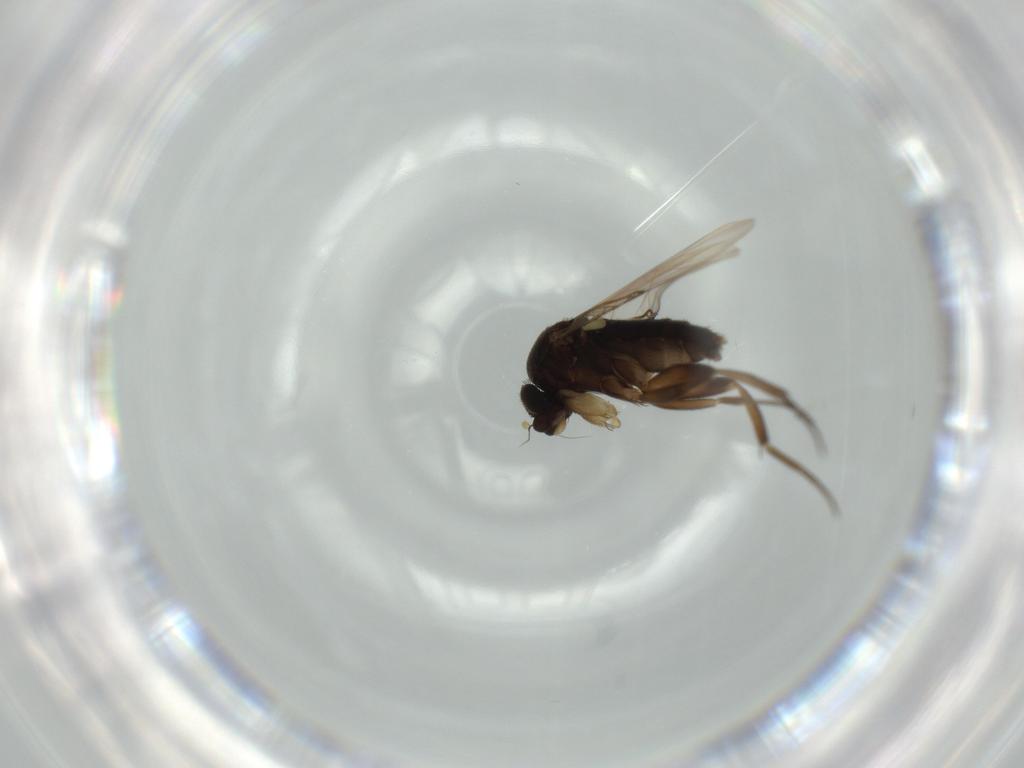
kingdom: Animalia
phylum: Arthropoda
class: Insecta
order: Diptera
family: Phoridae
